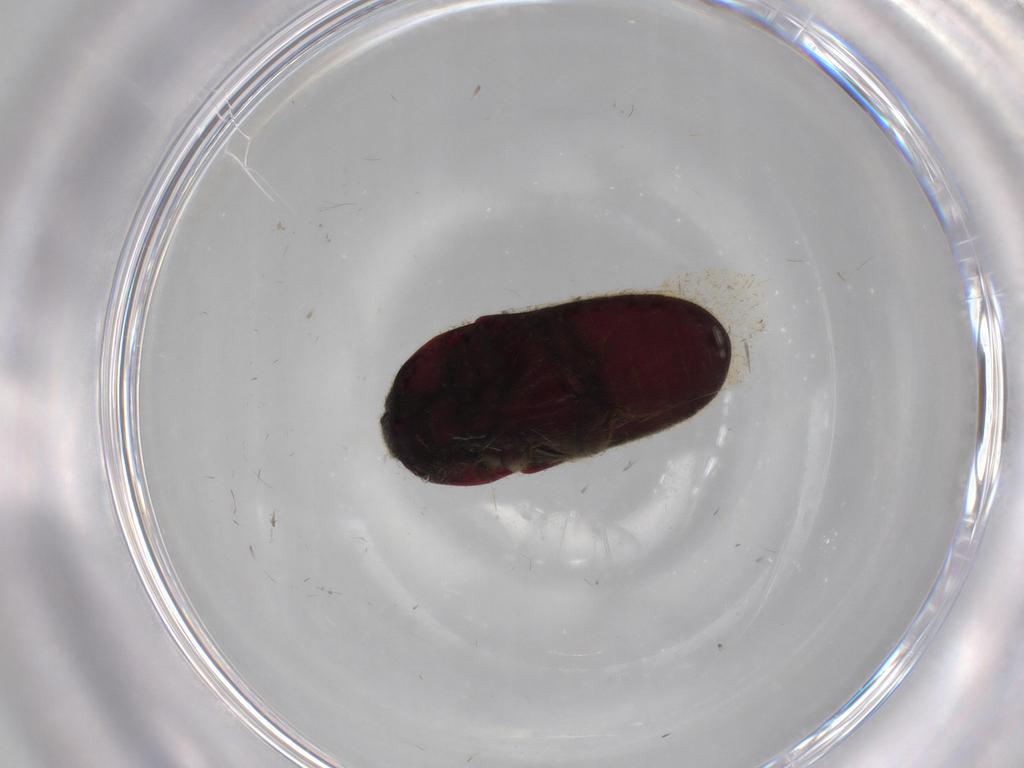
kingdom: Animalia
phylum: Arthropoda
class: Insecta
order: Coleoptera
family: Throscidae
